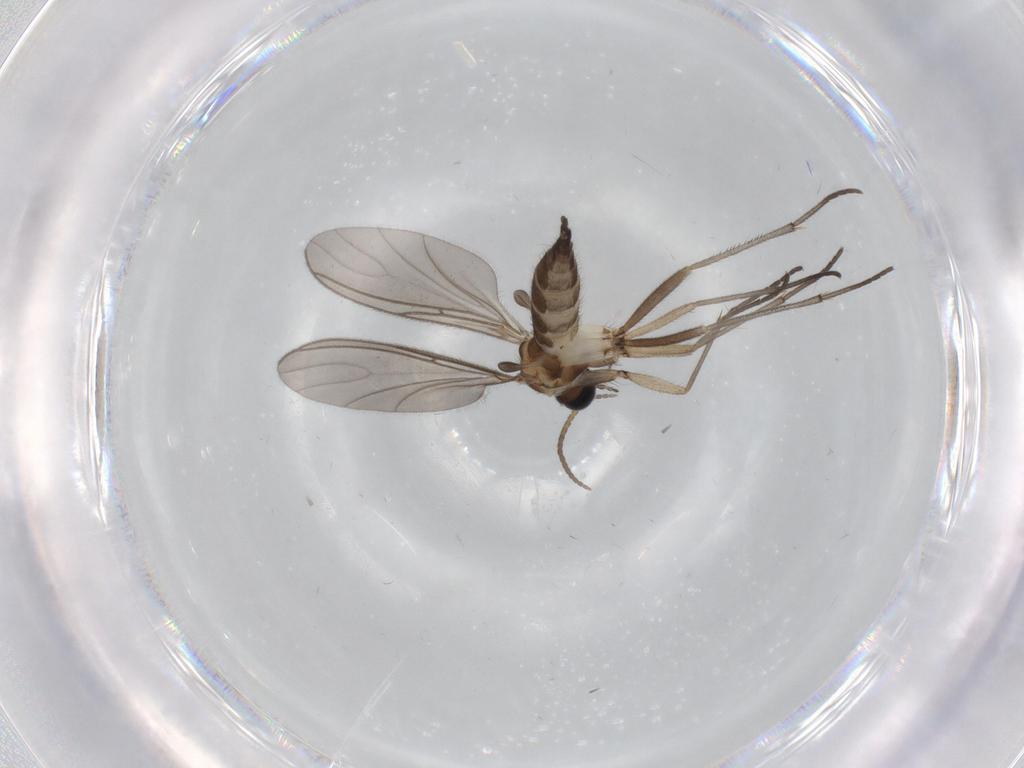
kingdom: Animalia
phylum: Arthropoda
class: Insecta
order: Diptera
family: Sciaridae
